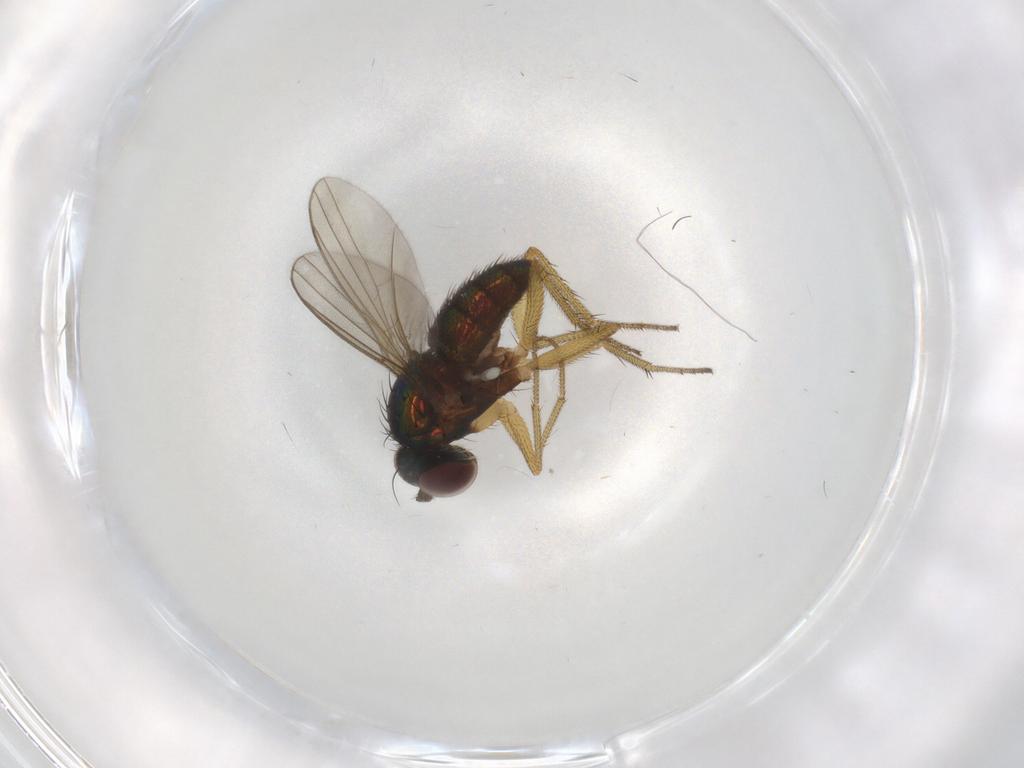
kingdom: Animalia
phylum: Arthropoda
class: Insecta
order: Diptera
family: Dolichopodidae
